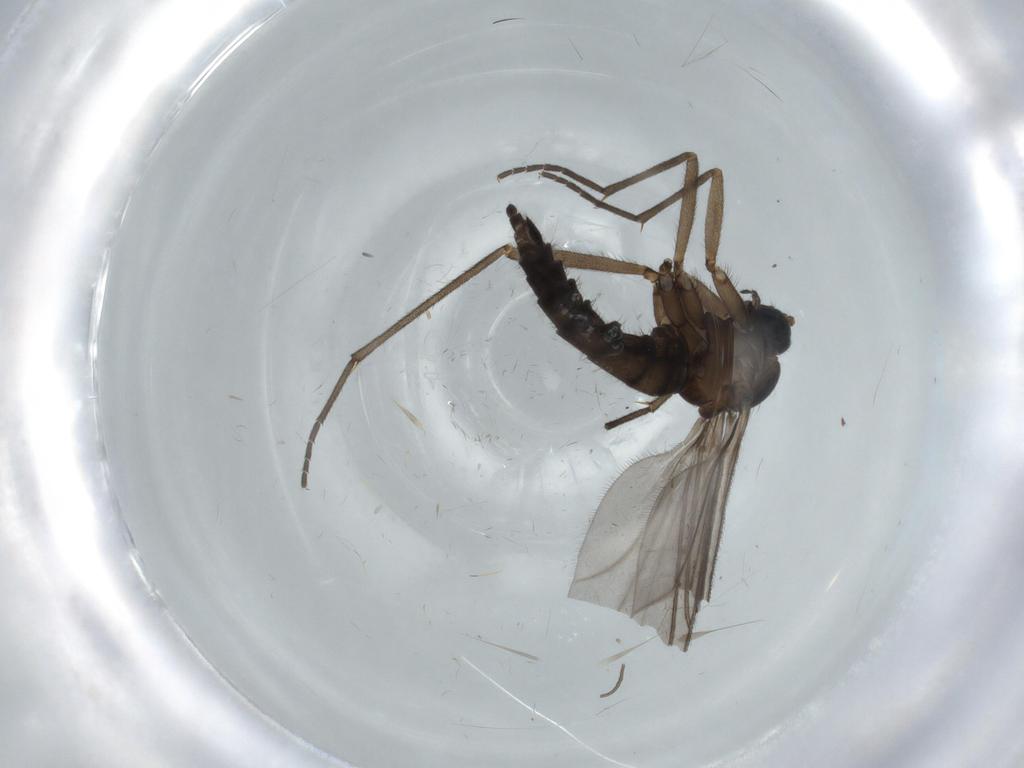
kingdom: Animalia
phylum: Arthropoda
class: Insecta
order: Diptera
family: Sciaridae
